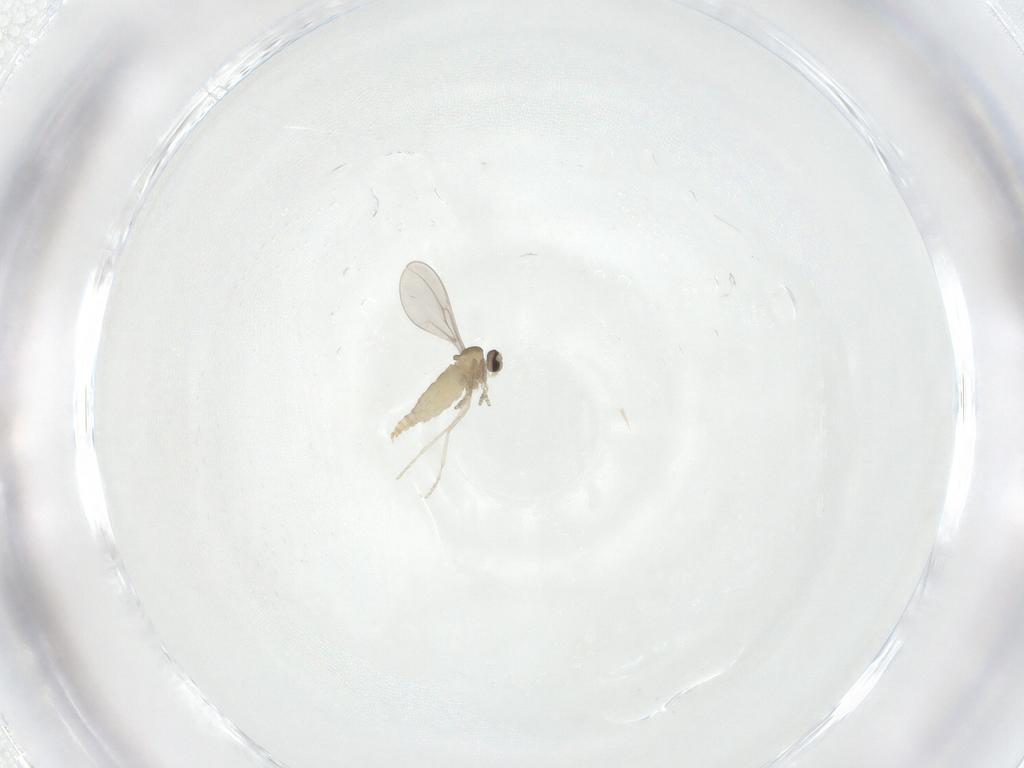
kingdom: Animalia
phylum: Arthropoda
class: Insecta
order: Diptera
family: Cecidomyiidae
